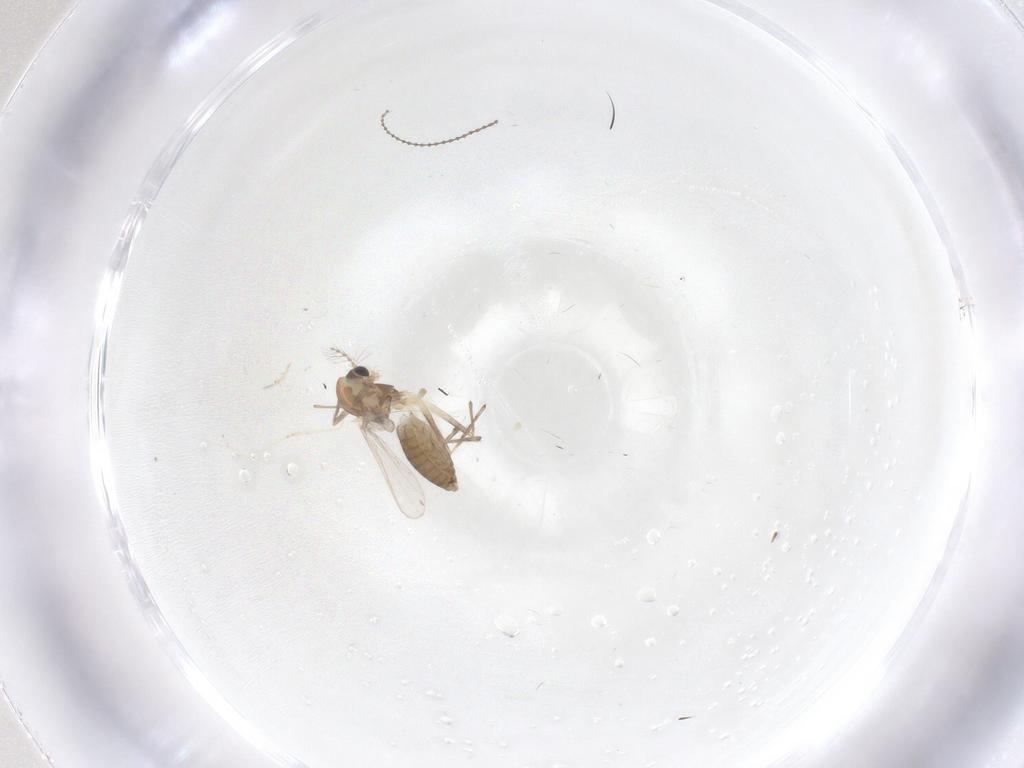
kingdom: Animalia
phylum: Arthropoda
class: Insecta
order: Diptera
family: Chironomidae
